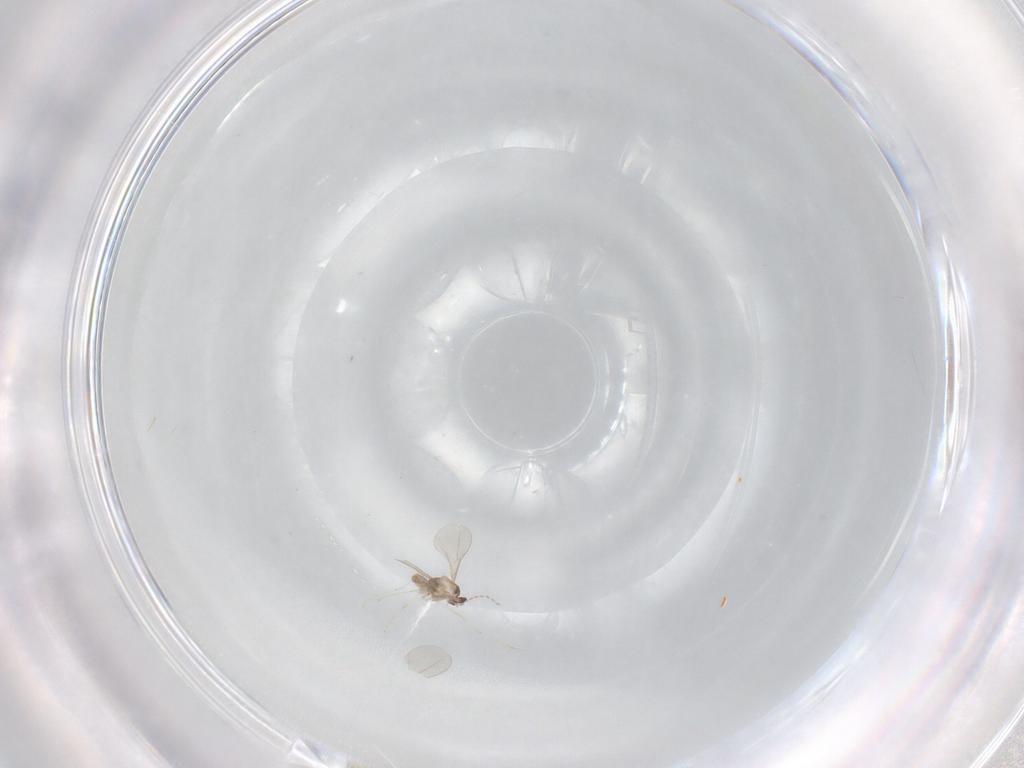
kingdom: Animalia
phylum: Arthropoda
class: Insecta
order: Diptera
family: Cecidomyiidae
